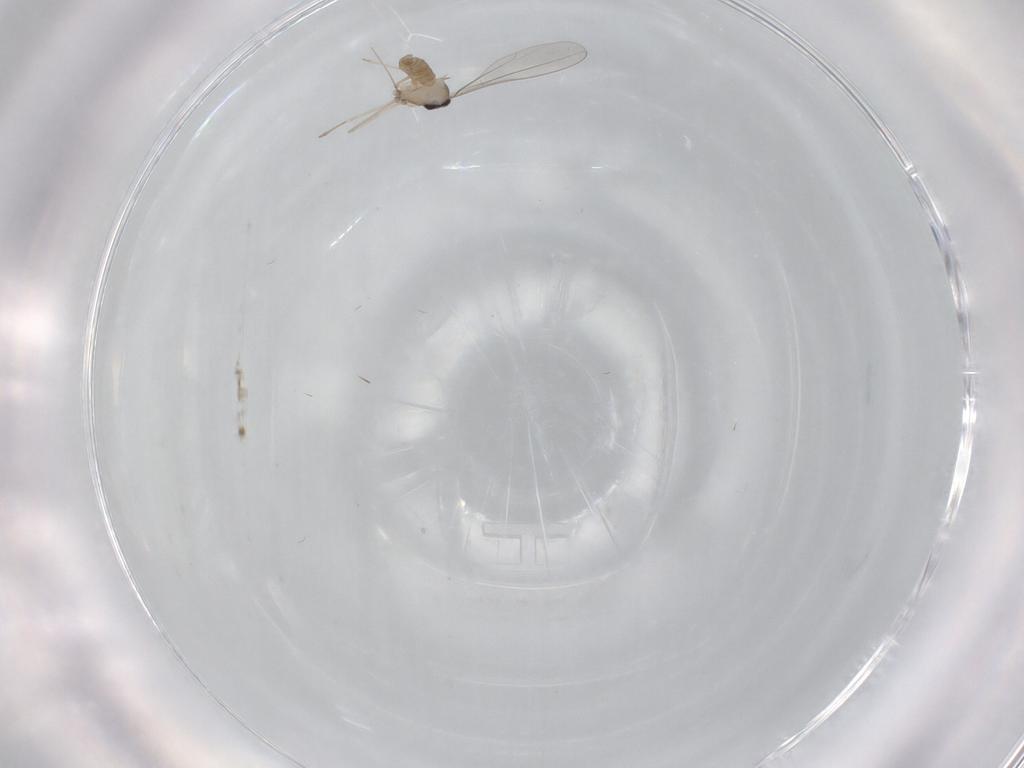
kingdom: Animalia
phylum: Arthropoda
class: Insecta
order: Diptera
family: Cecidomyiidae
